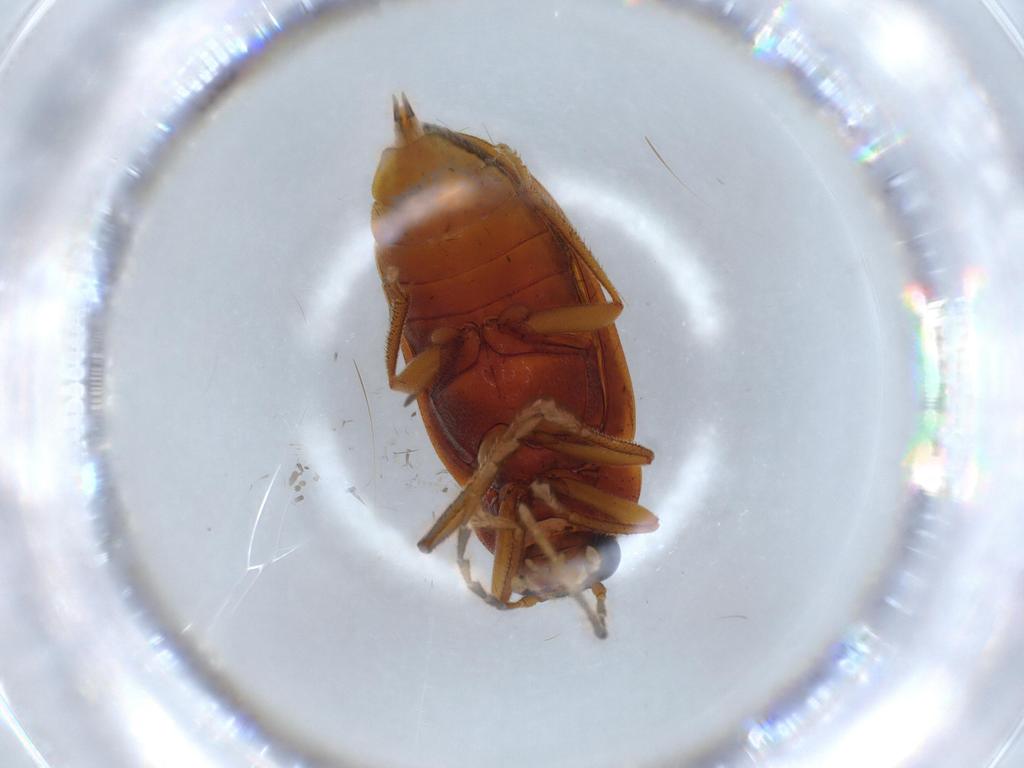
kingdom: Animalia
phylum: Arthropoda
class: Insecta
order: Coleoptera
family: Ptilodactylidae
